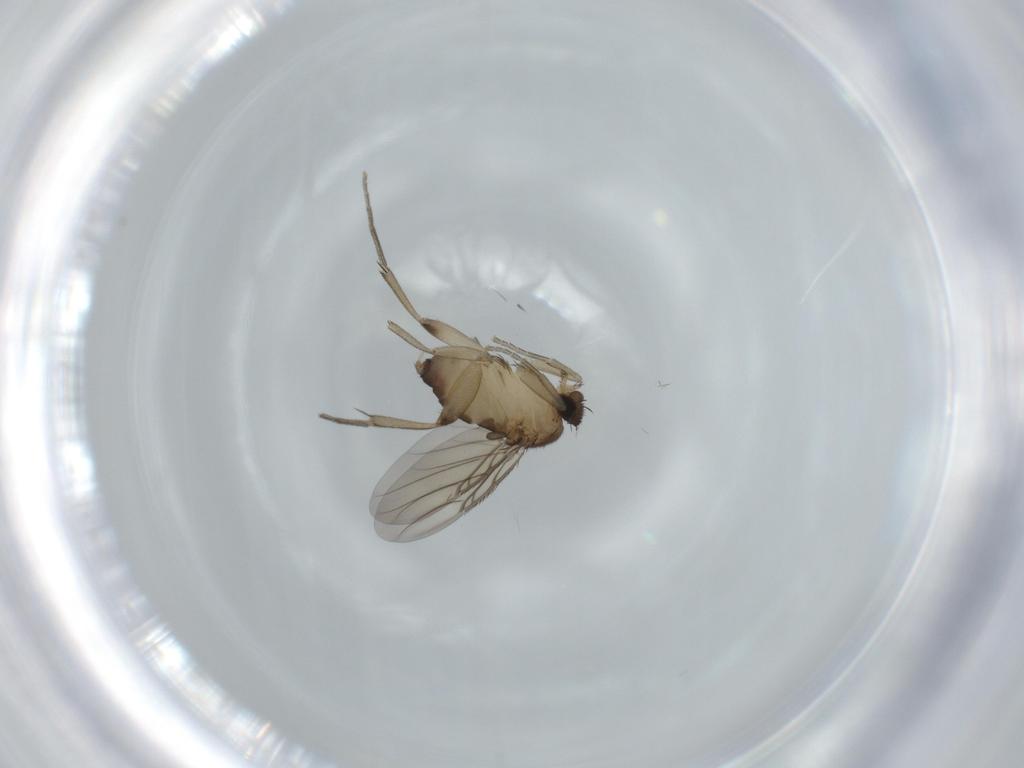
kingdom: Animalia
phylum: Arthropoda
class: Insecta
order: Diptera
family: Phoridae
